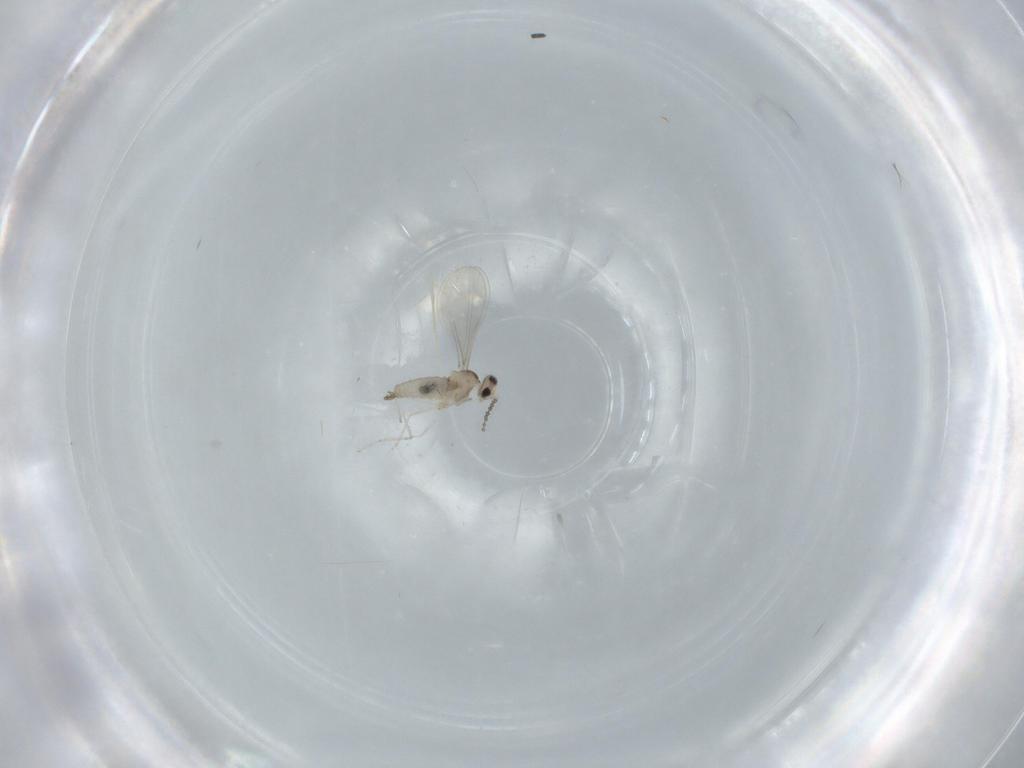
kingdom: Animalia
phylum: Arthropoda
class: Insecta
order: Diptera
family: Cecidomyiidae
